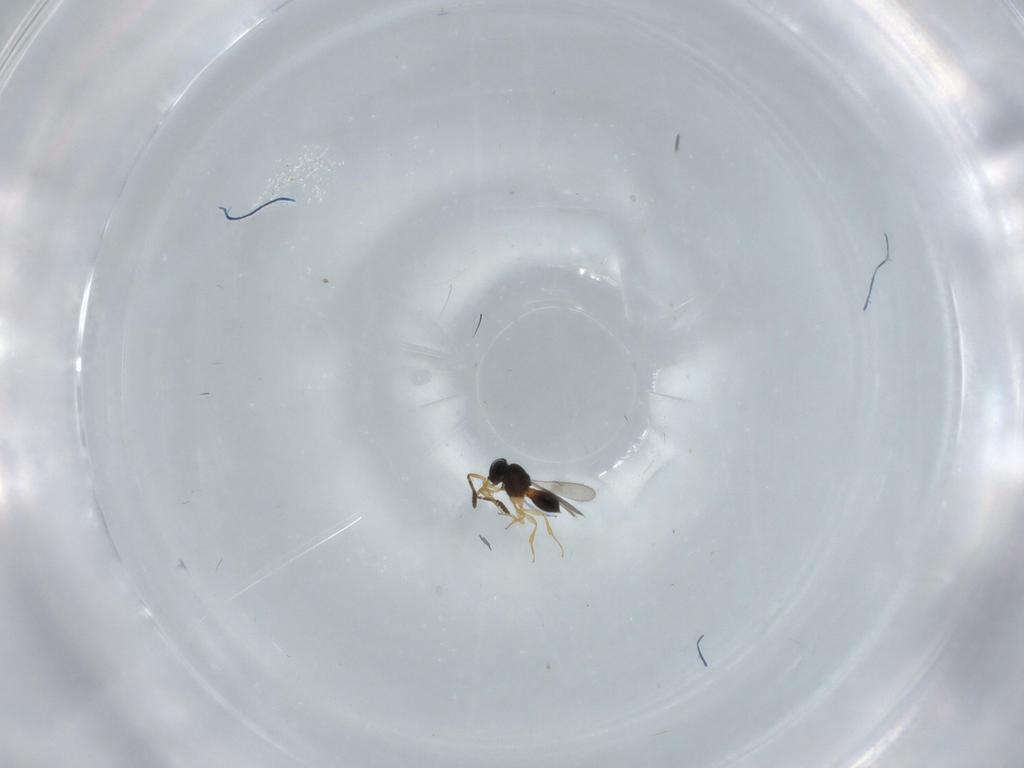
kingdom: Animalia
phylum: Arthropoda
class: Insecta
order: Hymenoptera
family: Scelionidae
